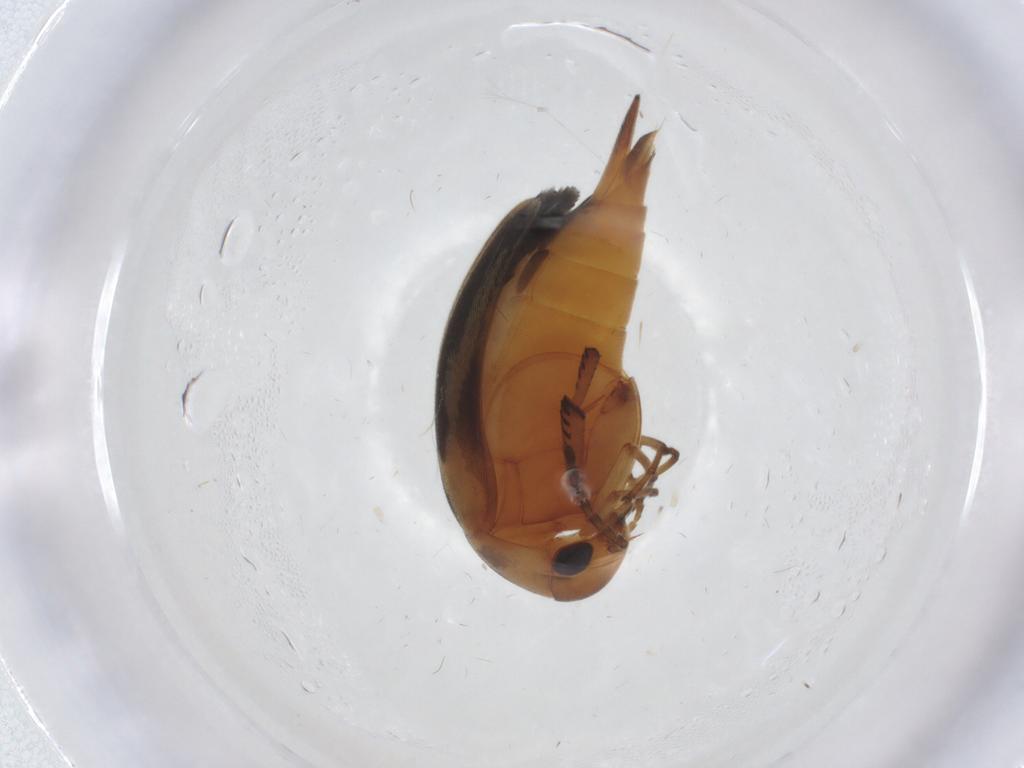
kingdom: Animalia
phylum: Arthropoda
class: Insecta
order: Coleoptera
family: Mordellidae
